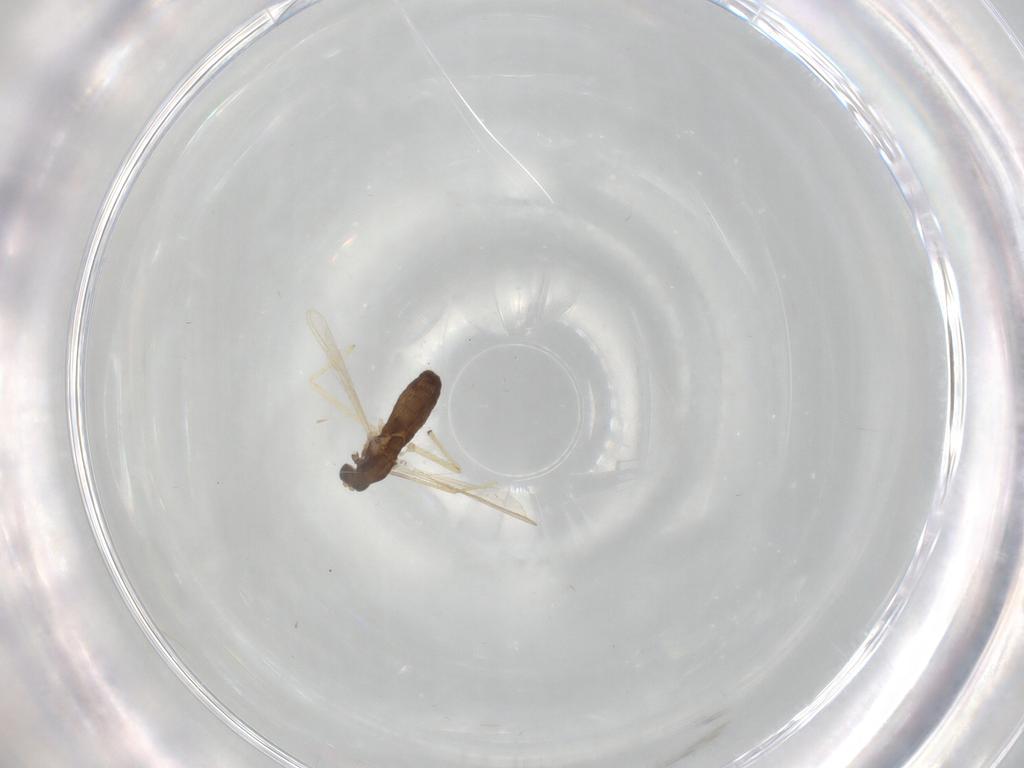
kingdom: Animalia
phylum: Arthropoda
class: Insecta
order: Diptera
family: Chironomidae
